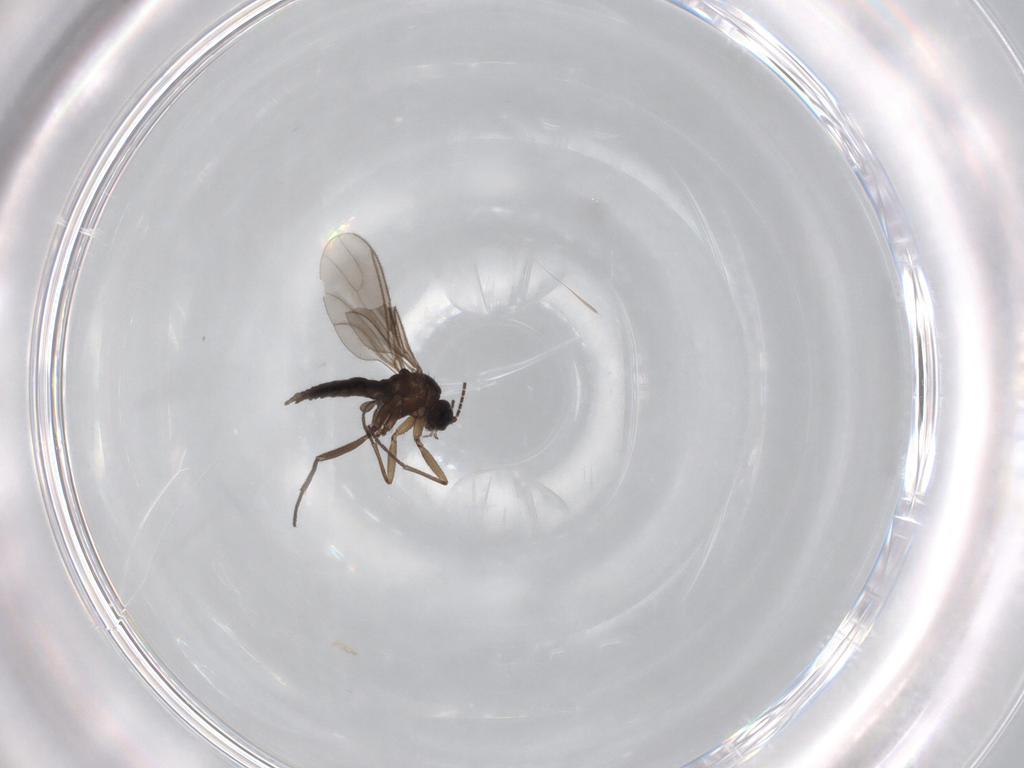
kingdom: Animalia
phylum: Arthropoda
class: Insecta
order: Diptera
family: Sciaridae
